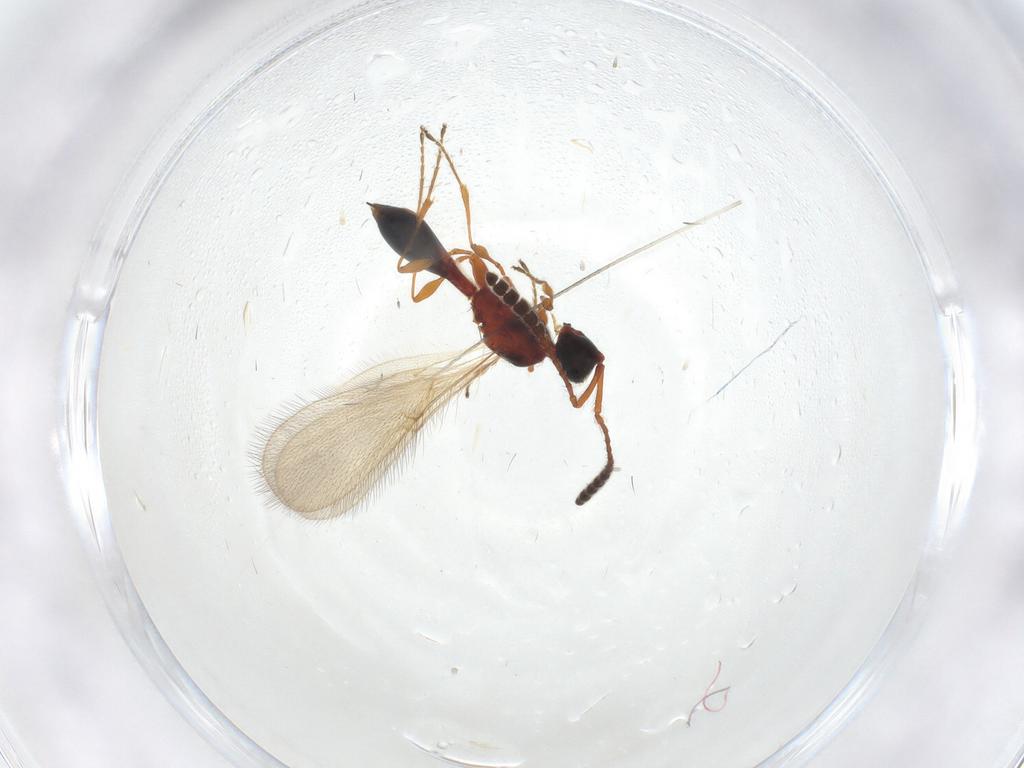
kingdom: Animalia
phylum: Arthropoda
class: Insecta
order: Hymenoptera
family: Diapriidae
